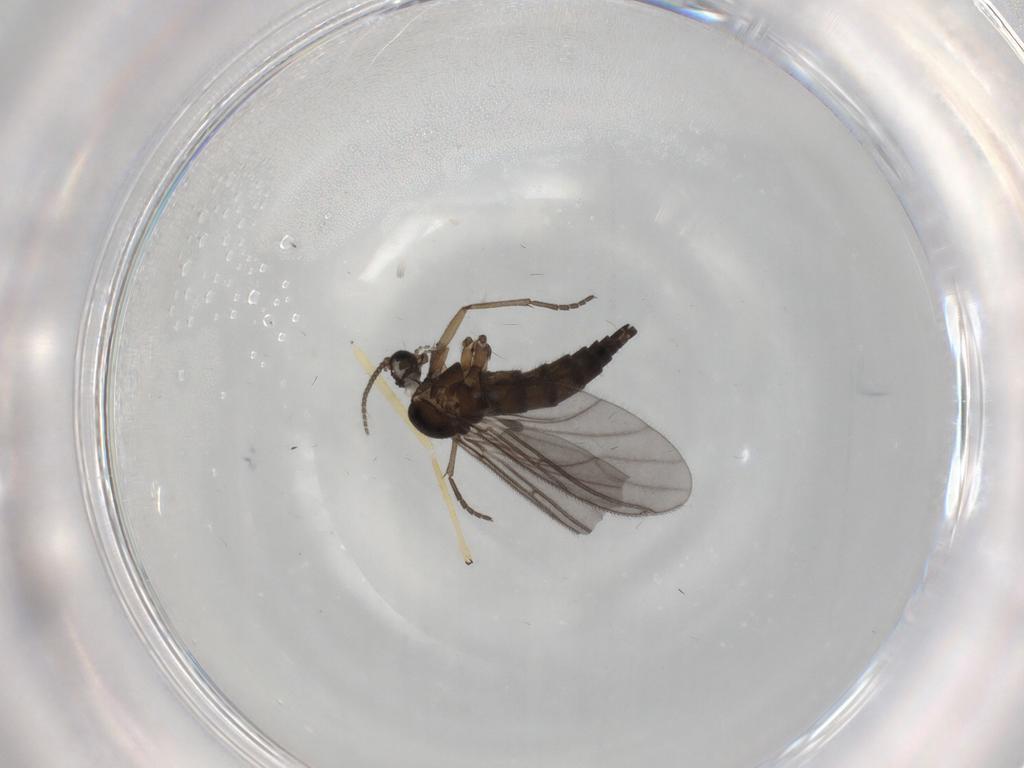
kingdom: Animalia
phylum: Arthropoda
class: Insecta
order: Diptera
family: Sciaridae
